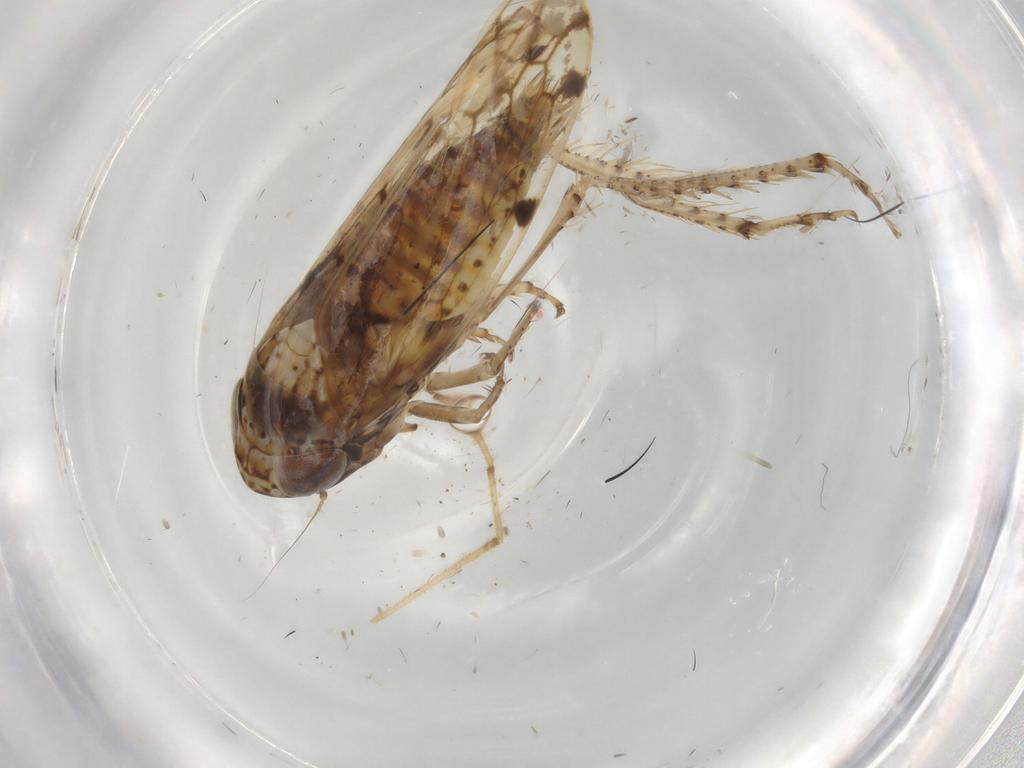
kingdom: Animalia
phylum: Arthropoda
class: Insecta
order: Hemiptera
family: Cicadellidae
